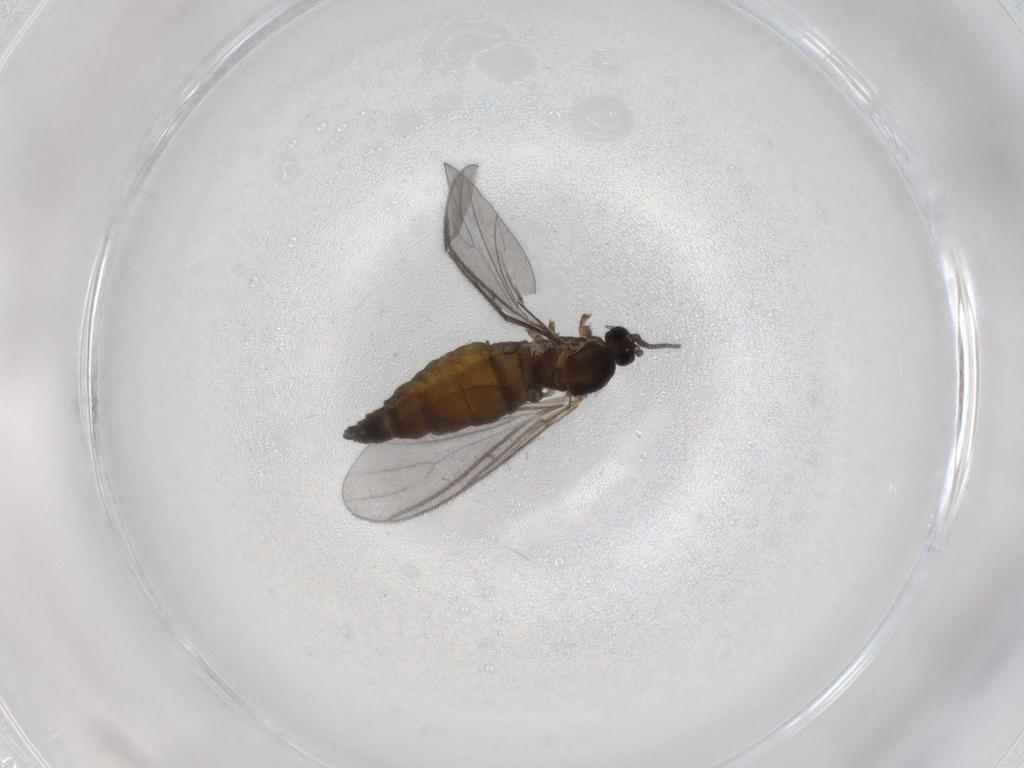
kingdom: Animalia
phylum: Arthropoda
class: Insecta
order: Diptera
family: Sciaridae
